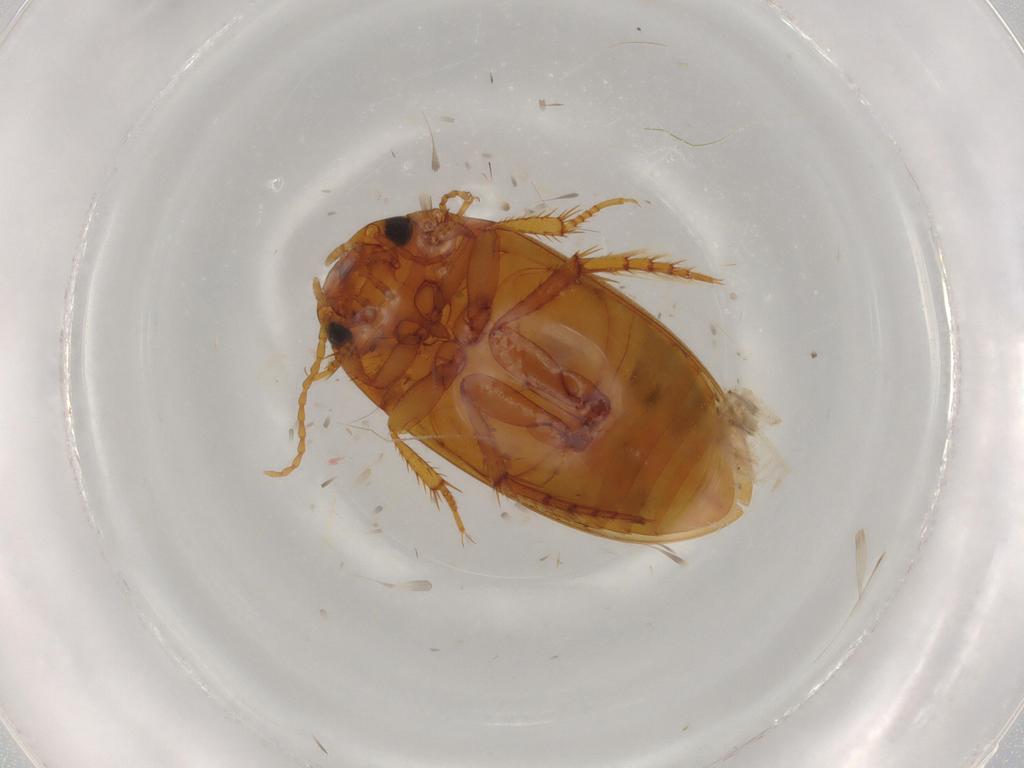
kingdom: Animalia
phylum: Arthropoda
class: Insecta
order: Coleoptera
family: Dytiscidae
